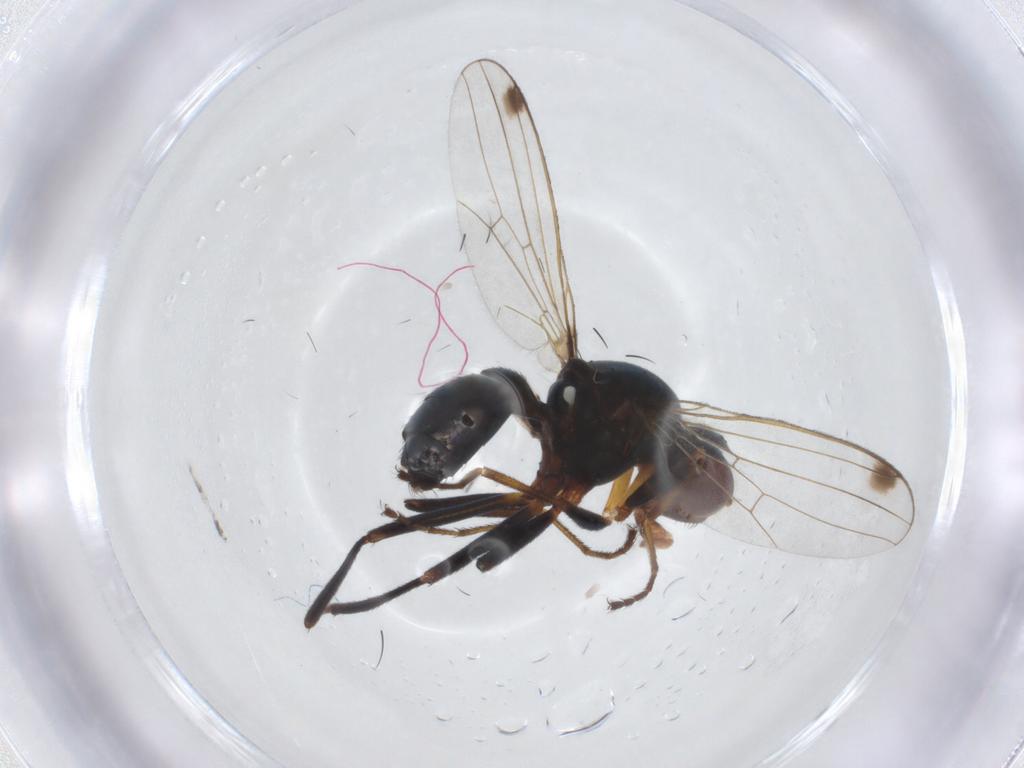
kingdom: Animalia
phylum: Arthropoda
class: Insecta
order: Diptera
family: Sepsidae
